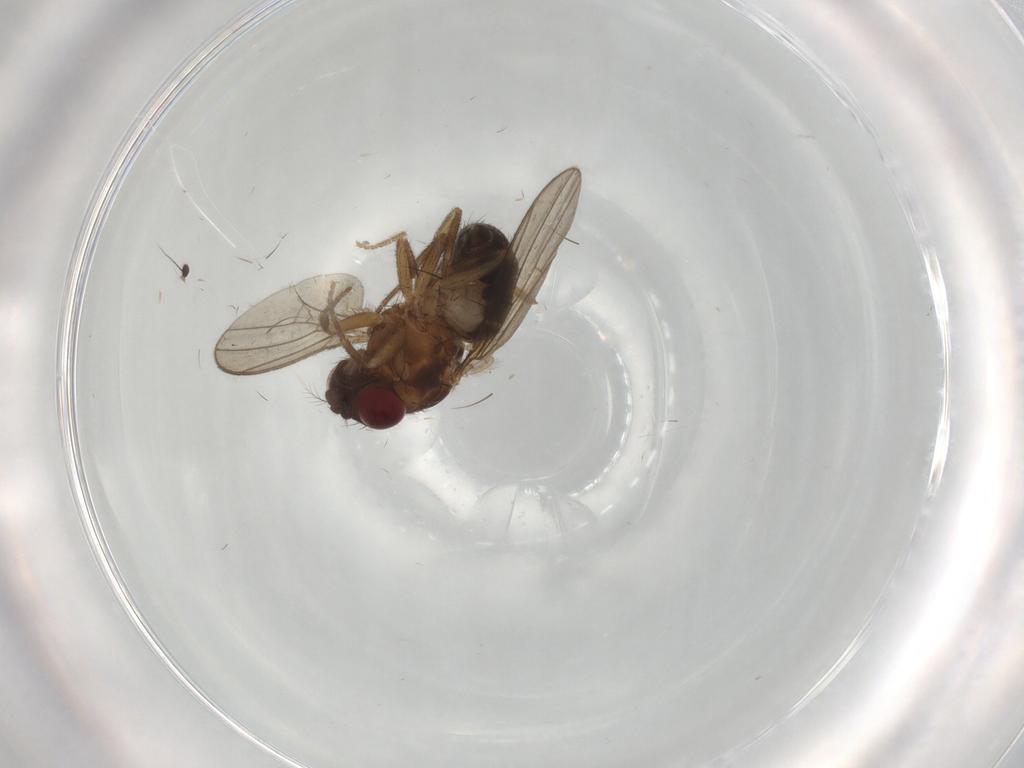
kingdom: Animalia
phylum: Arthropoda
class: Insecta
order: Diptera
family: Drosophilidae
